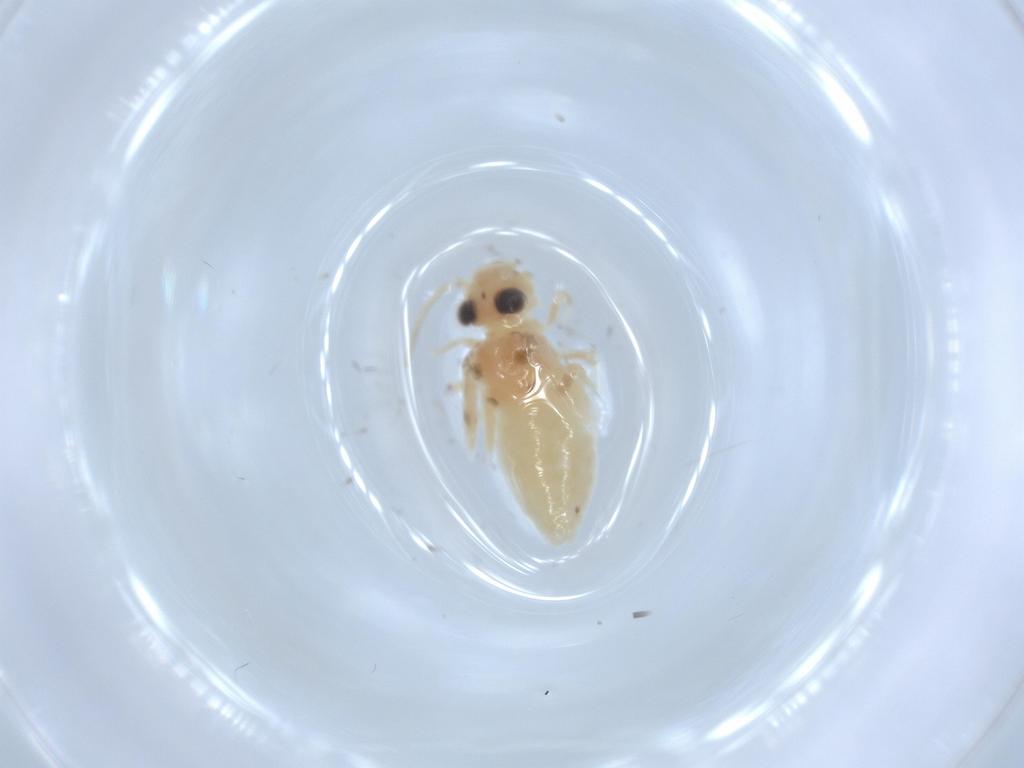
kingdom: Animalia
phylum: Arthropoda
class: Insecta
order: Psocodea
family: Caeciliusidae
